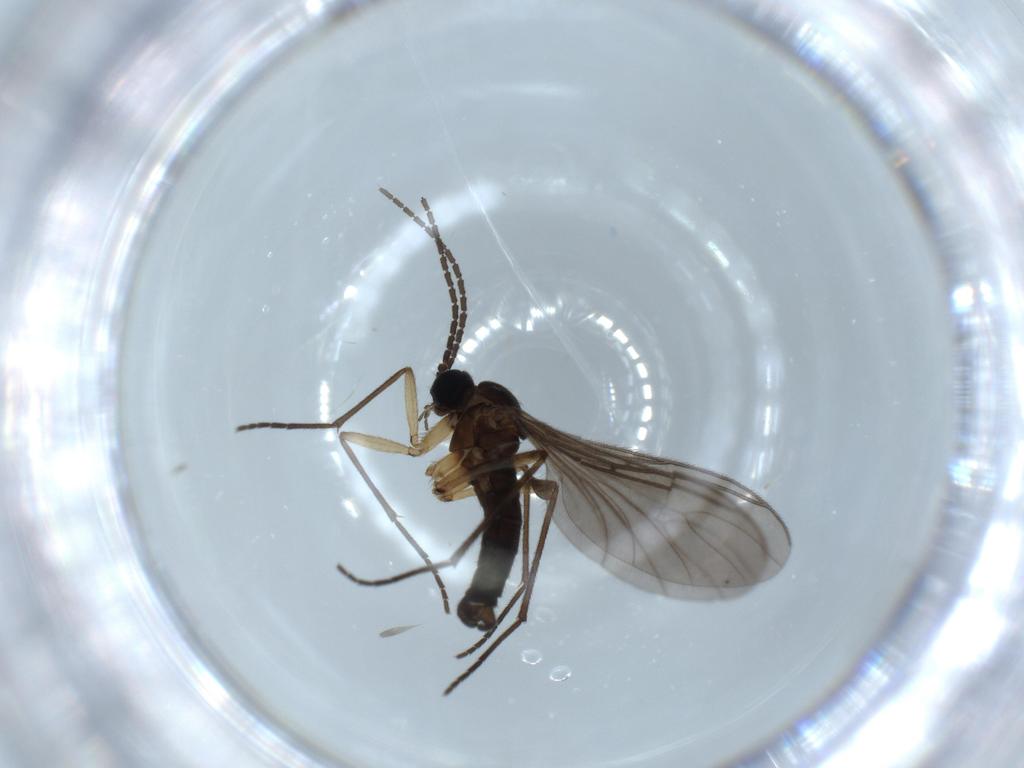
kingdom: Animalia
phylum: Arthropoda
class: Insecta
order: Diptera
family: Sciaridae
